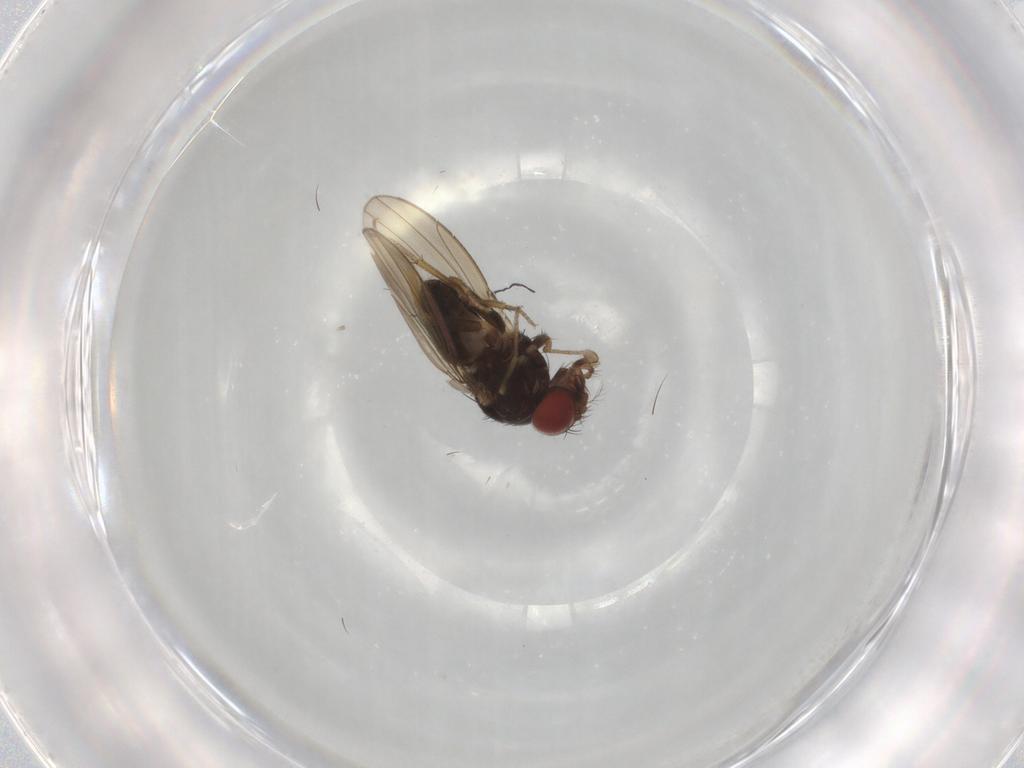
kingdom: Animalia
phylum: Arthropoda
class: Insecta
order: Diptera
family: Drosophilidae
